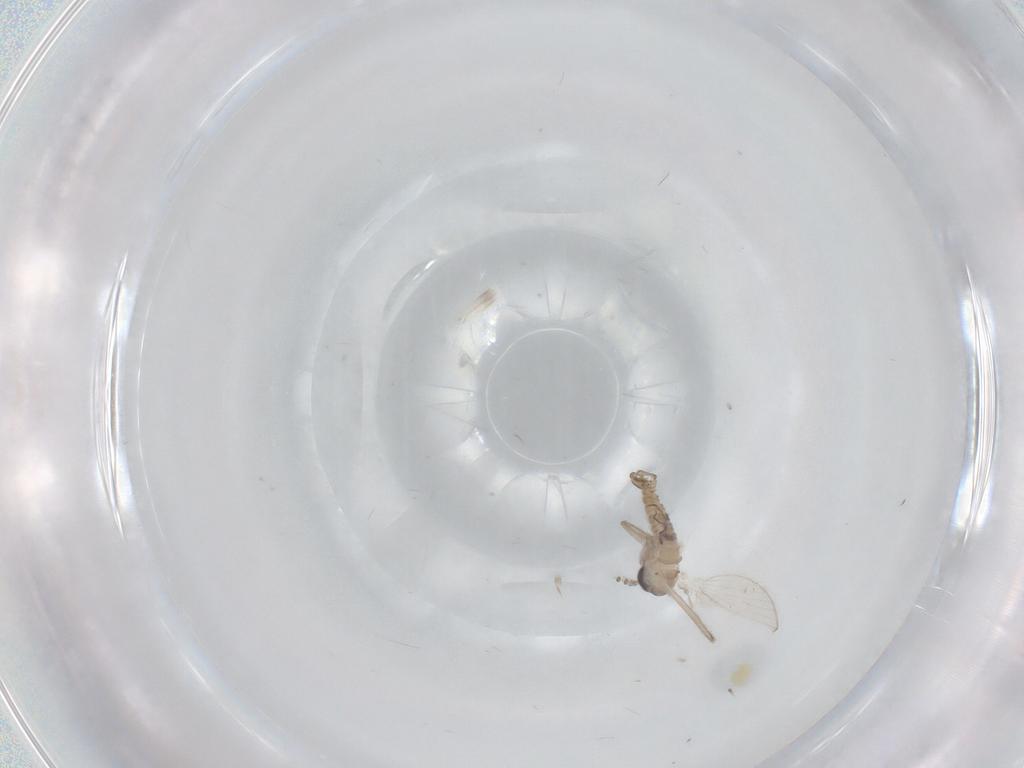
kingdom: Animalia
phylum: Arthropoda
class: Insecta
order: Diptera
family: Psychodidae
